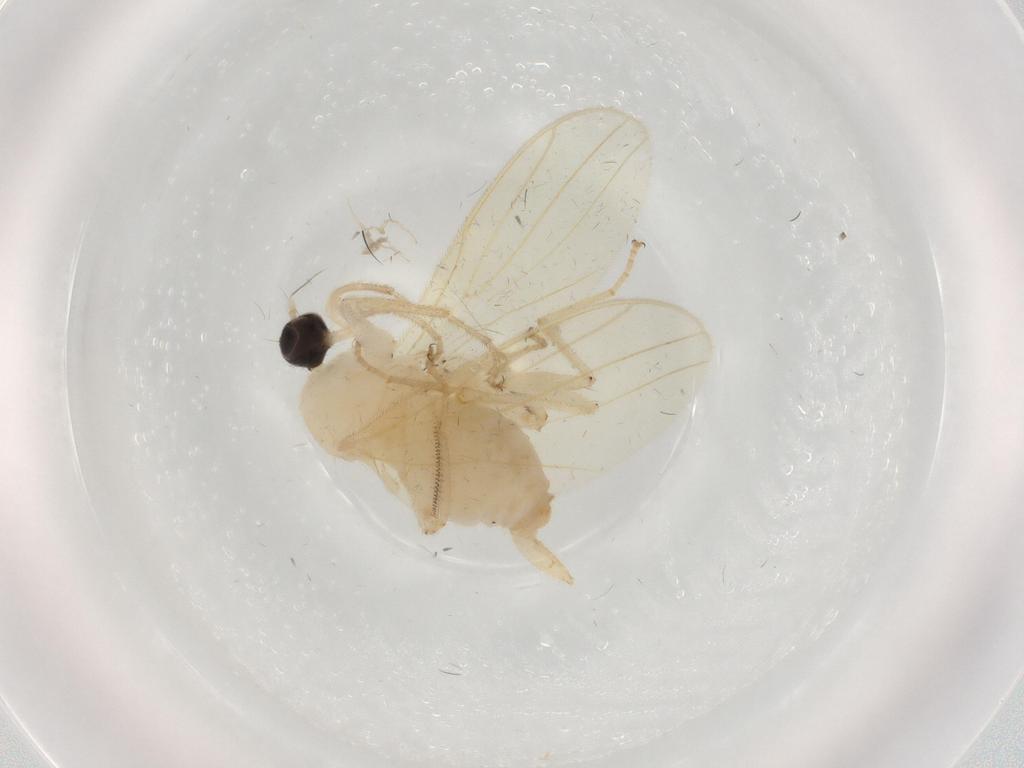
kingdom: Animalia
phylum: Arthropoda
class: Insecta
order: Diptera
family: Hybotidae
